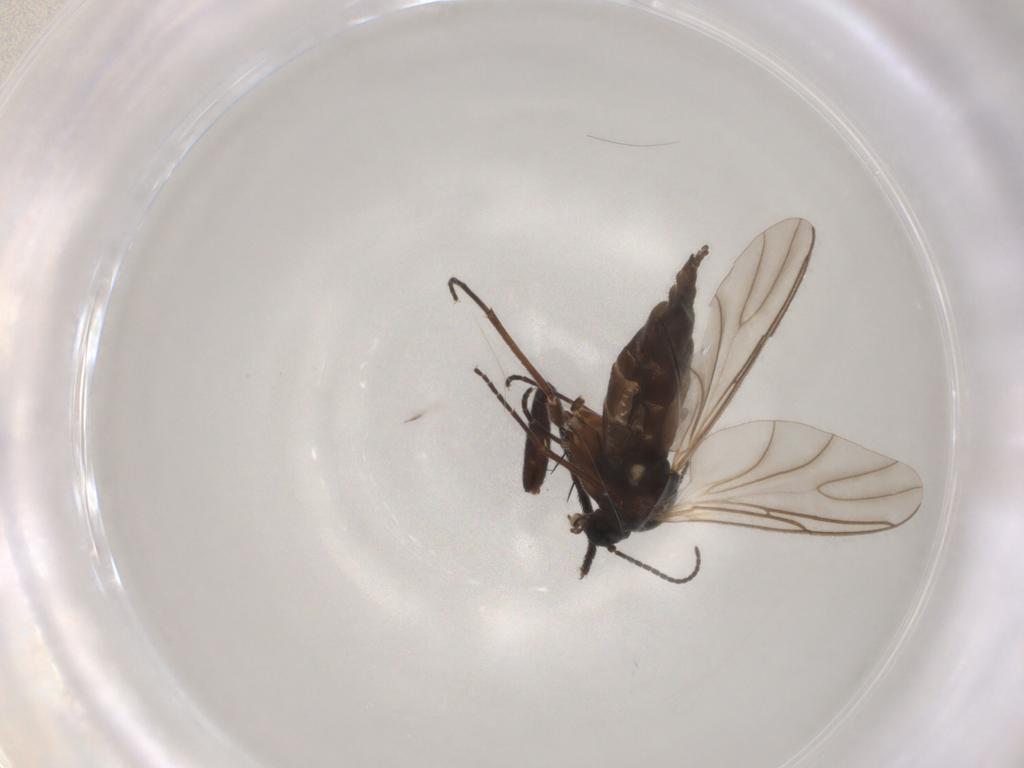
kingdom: Animalia
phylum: Arthropoda
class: Insecta
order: Diptera
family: Sciaridae
